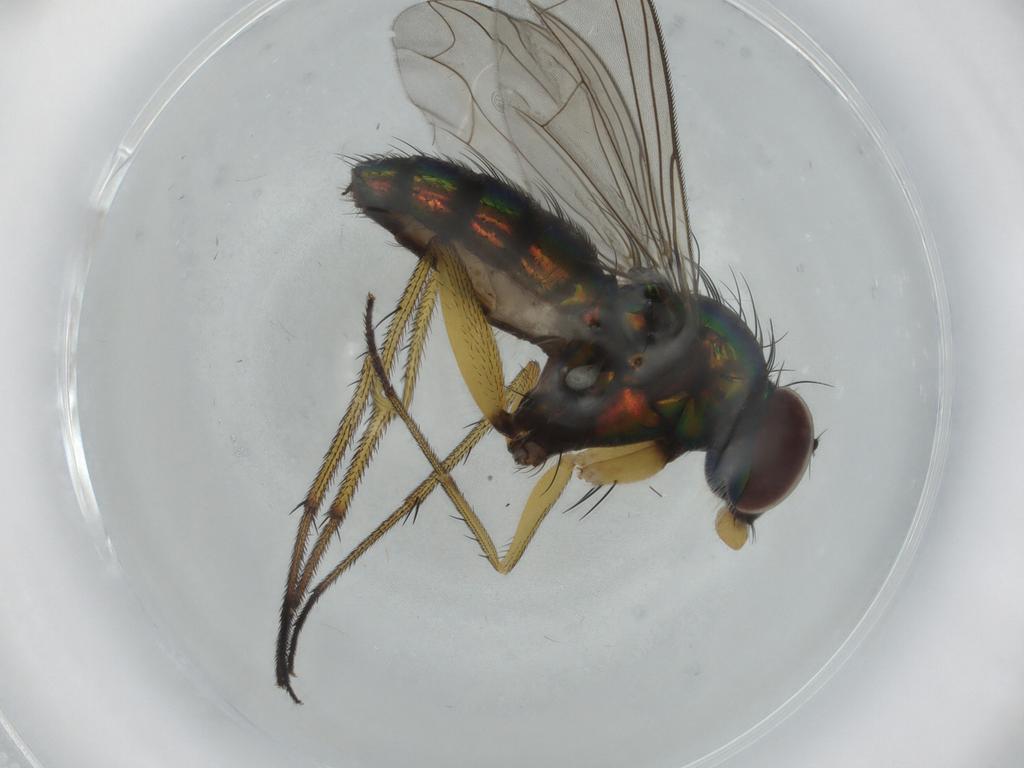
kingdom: Animalia
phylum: Arthropoda
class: Insecta
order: Diptera
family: Dolichopodidae
